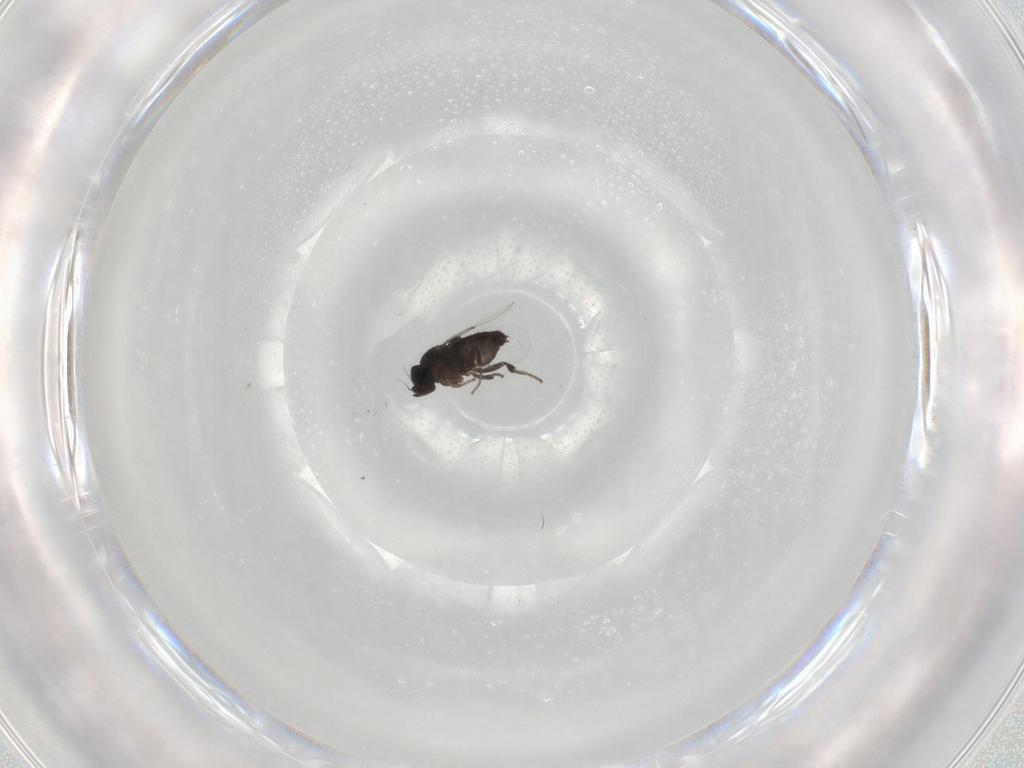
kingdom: Animalia
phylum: Arthropoda
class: Insecta
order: Diptera
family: Phoridae
